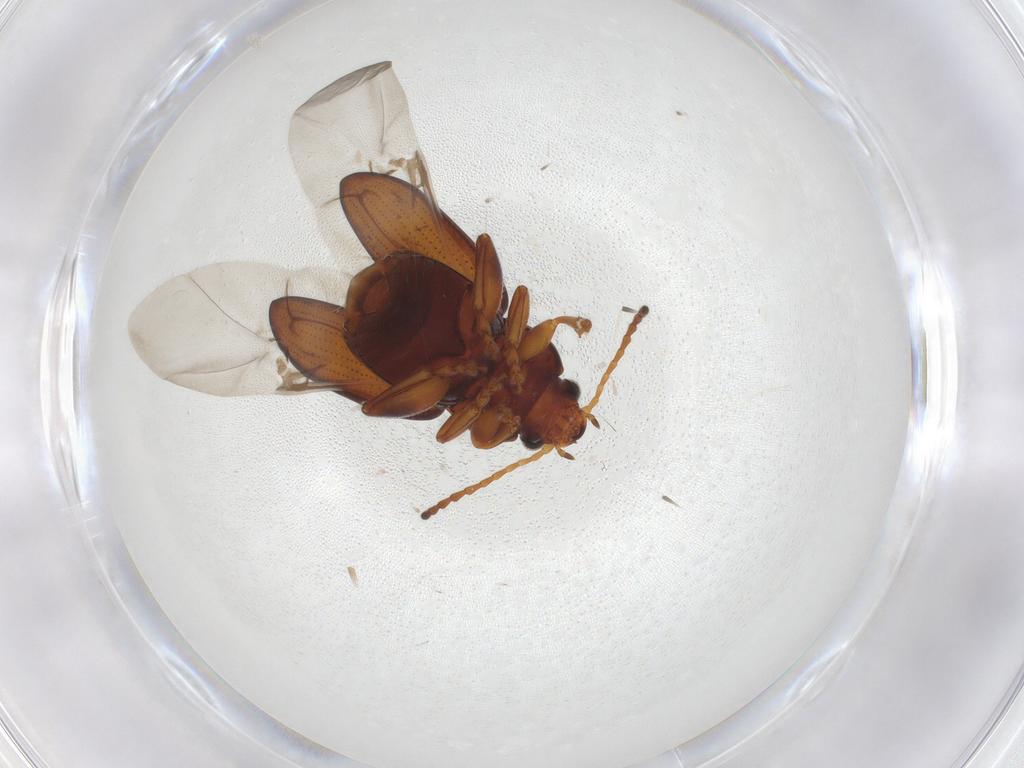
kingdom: Animalia
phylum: Arthropoda
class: Insecta
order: Coleoptera
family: Chrysomelidae
